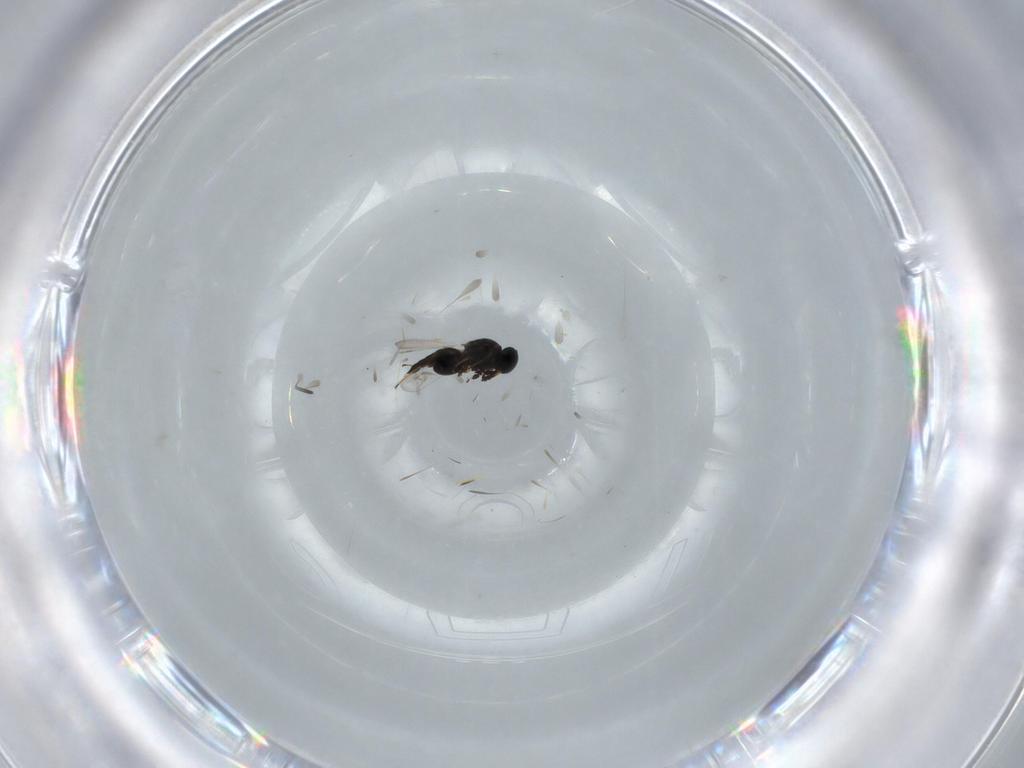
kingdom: Animalia
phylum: Arthropoda
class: Insecta
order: Hymenoptera
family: Platygastridae
